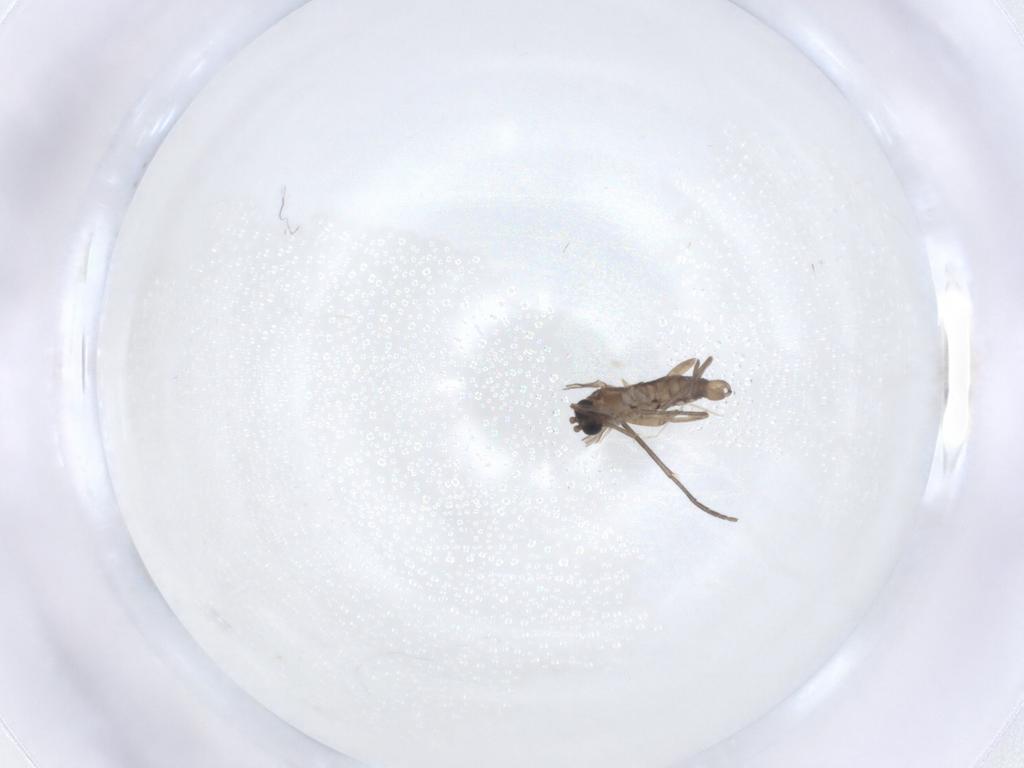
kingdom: Animalia
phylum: Arthropoda
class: Insecta
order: Diptera
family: Sciaridae
